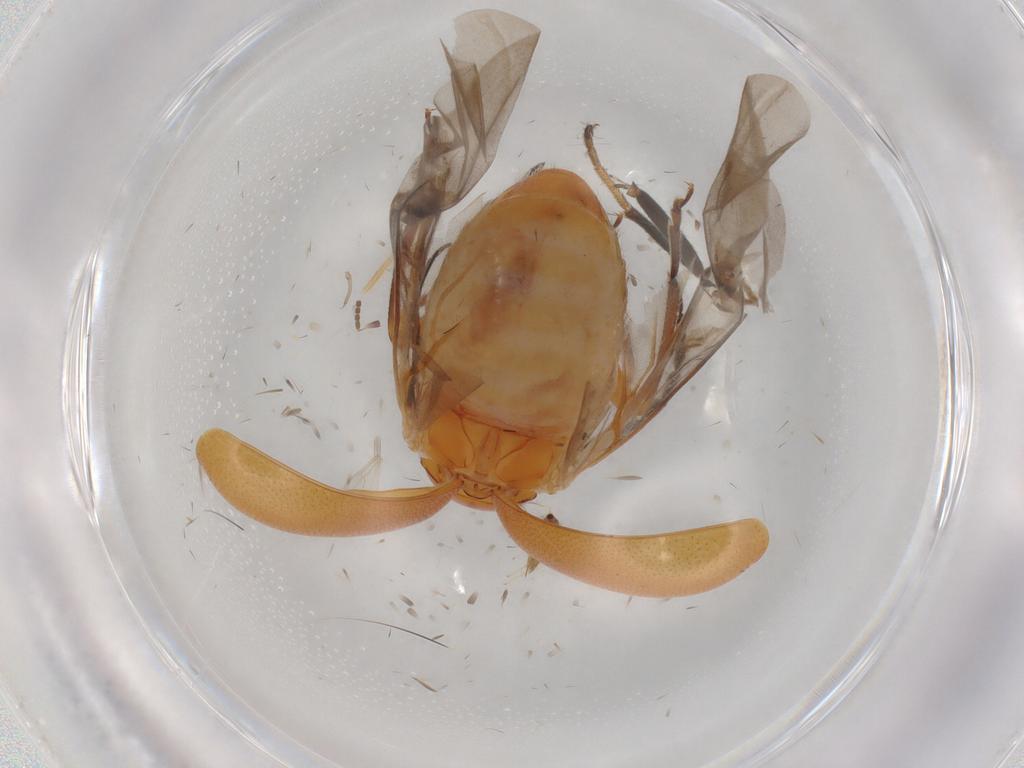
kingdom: Animalia
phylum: Arthropoda
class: Insecta
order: Coleoptera
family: Chrysomelidae
